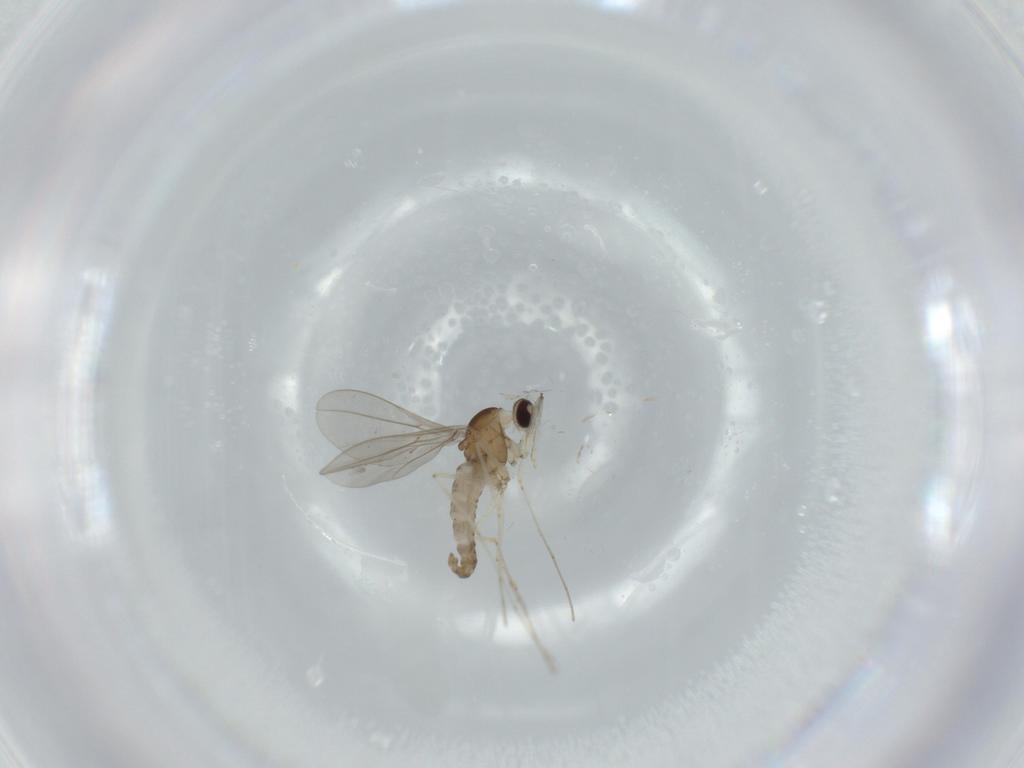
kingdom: Animalia
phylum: Arthropoda
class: Insecta
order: Diptera
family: Cecidomyiidae
